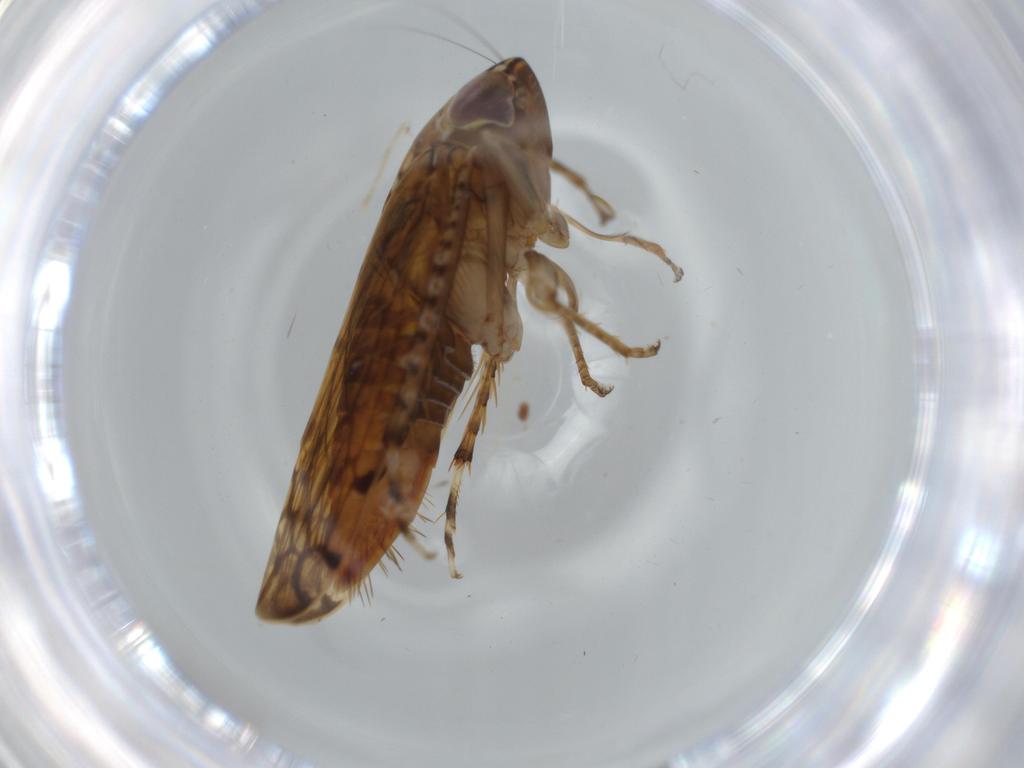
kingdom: Animalia
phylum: Arthropoda
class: Insecta
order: Hemiptera
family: Cicadellidae
